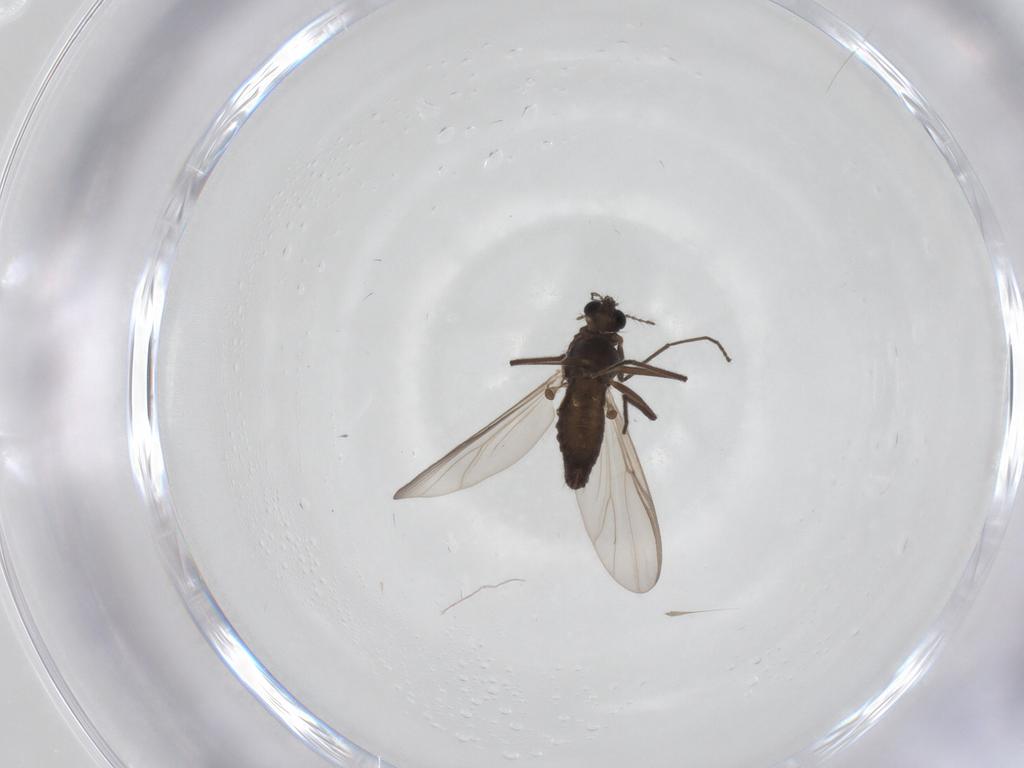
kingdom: Animalia
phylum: Arthropoda
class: Insecta
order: Diptera
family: Chironomidae
